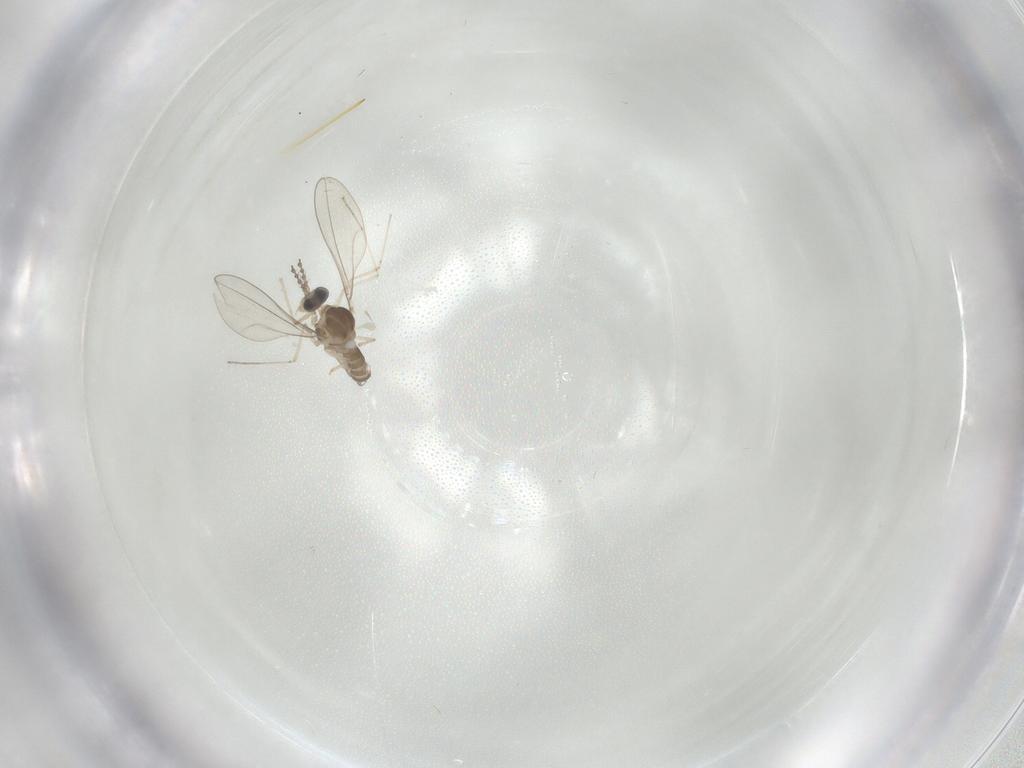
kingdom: Animalia
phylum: Arthropoda
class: Insecta
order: Diptera
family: Cecidomyiidae
